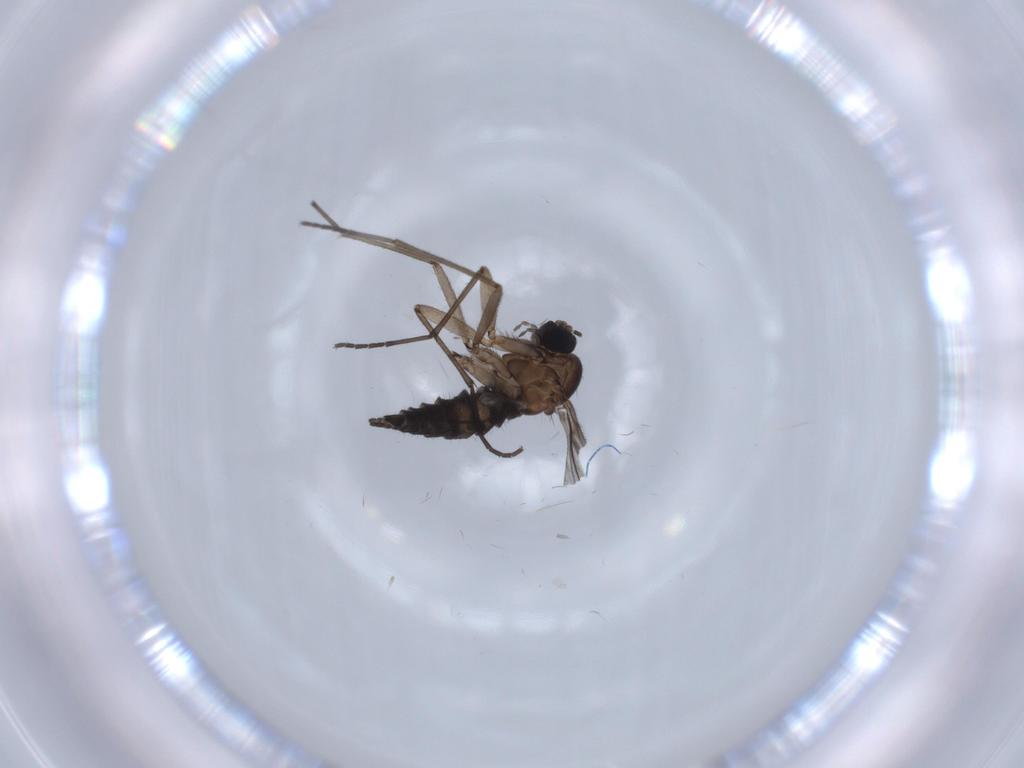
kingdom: Animalia
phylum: Arthropoda
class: Insecta
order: Diptera
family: Sciaridae
